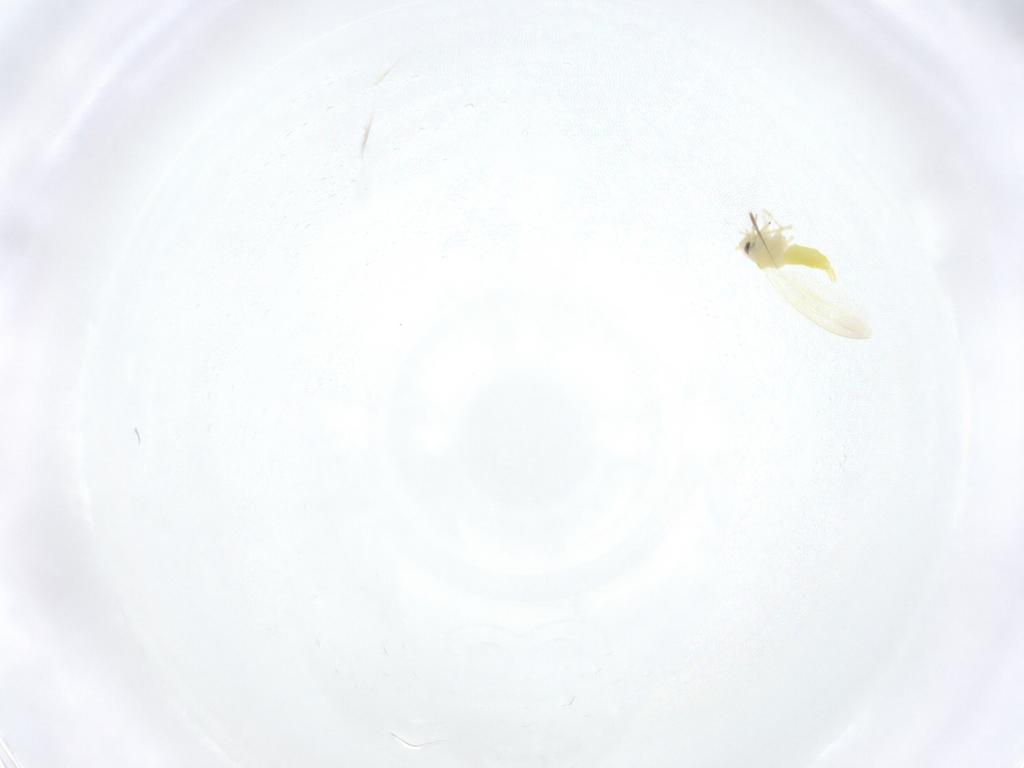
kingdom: Animalia
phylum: Arthropoda
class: Insecta
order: Hemiptera
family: Aleyrodidae
